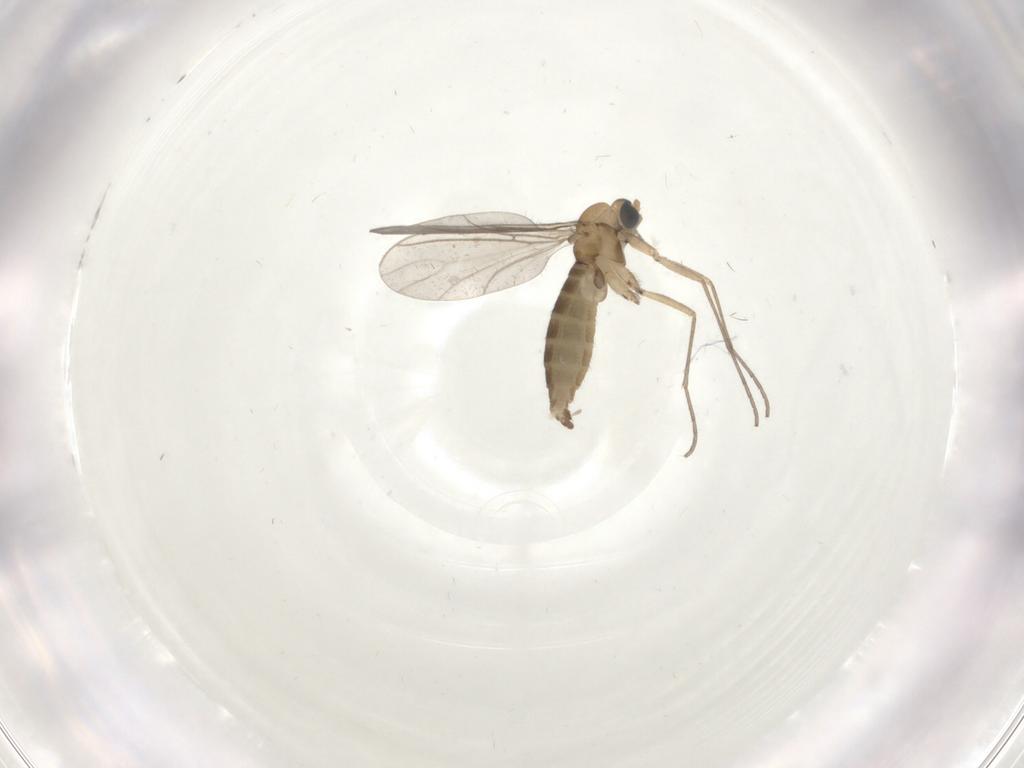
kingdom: Animalia
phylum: Arthropoda
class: Insecta
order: Diptera
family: Sciaridae
